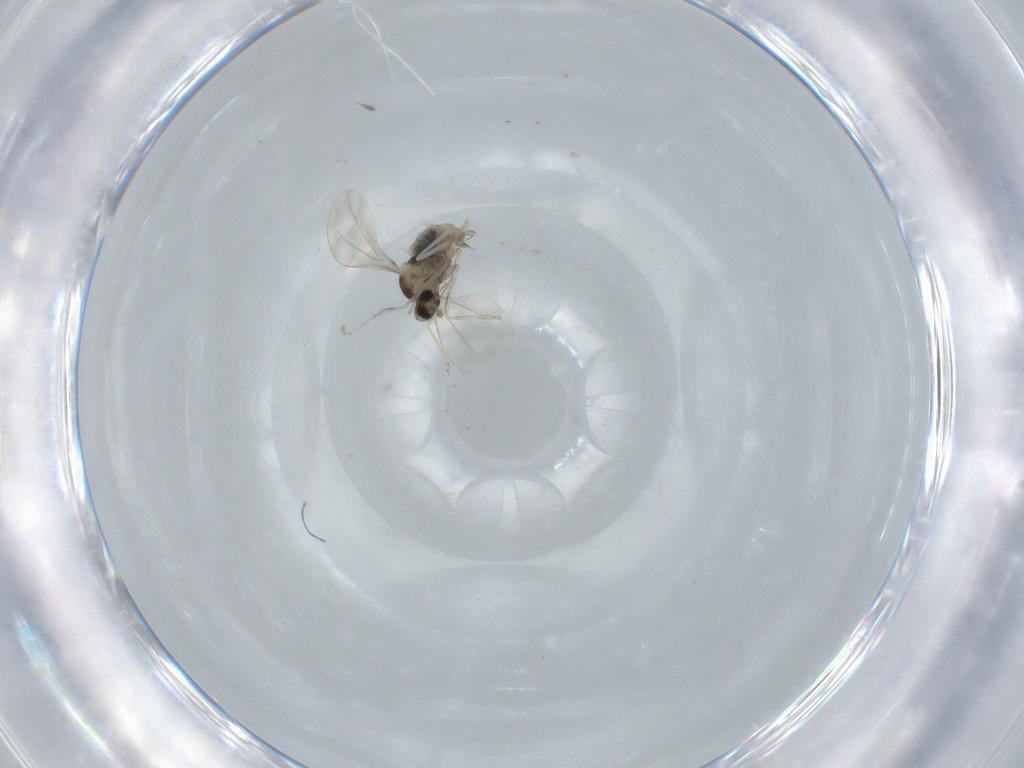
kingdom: Animalia
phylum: Arthropoda
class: Insecta
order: Diptera
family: Cecidomyiidae
